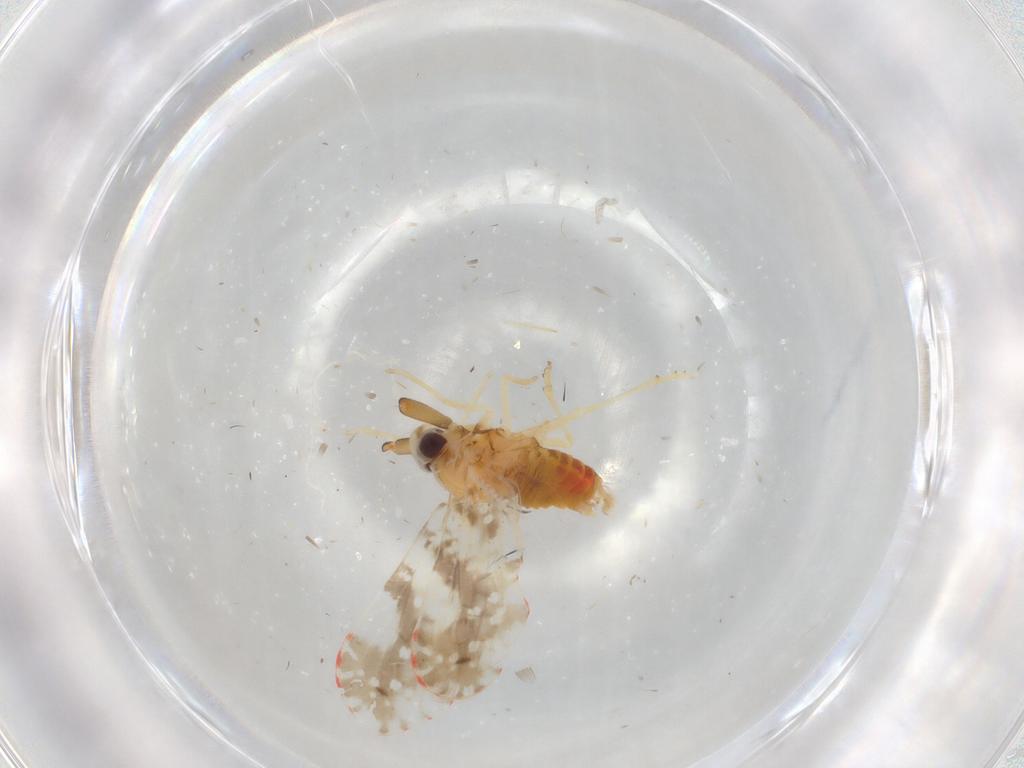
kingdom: Animalia
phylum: Arthropoda
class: Insecta
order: Hemiptera
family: Derbidae
